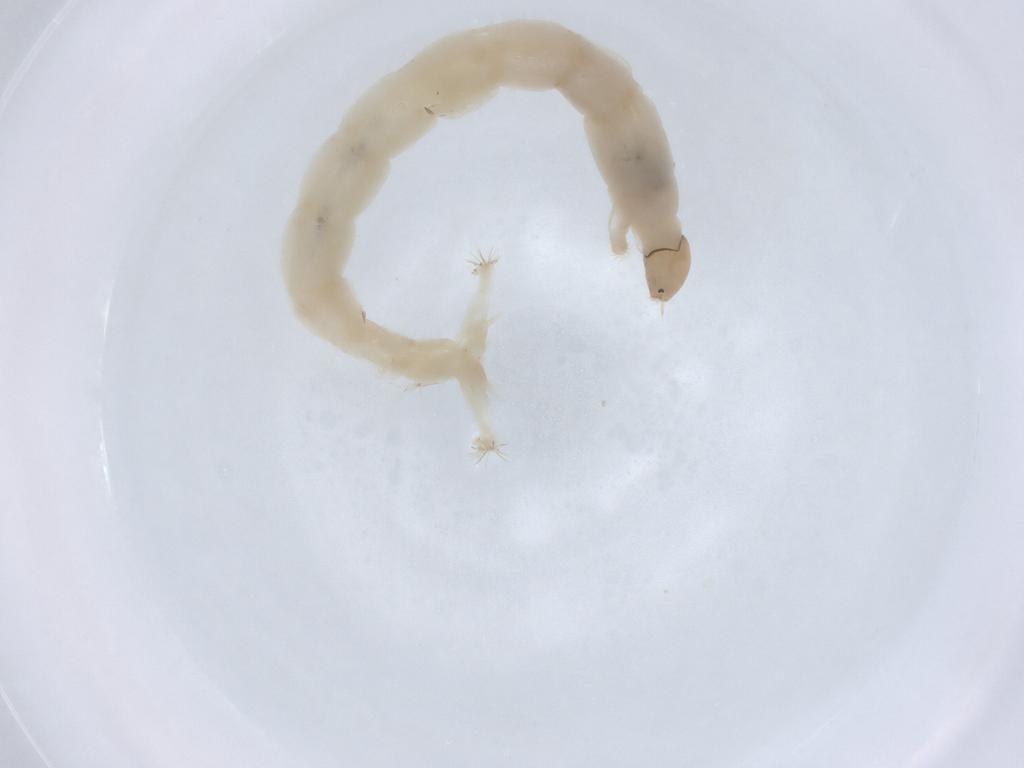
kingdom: Animalia
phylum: Arthropoda
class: Insecta
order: Diptera
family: Chironomidae
